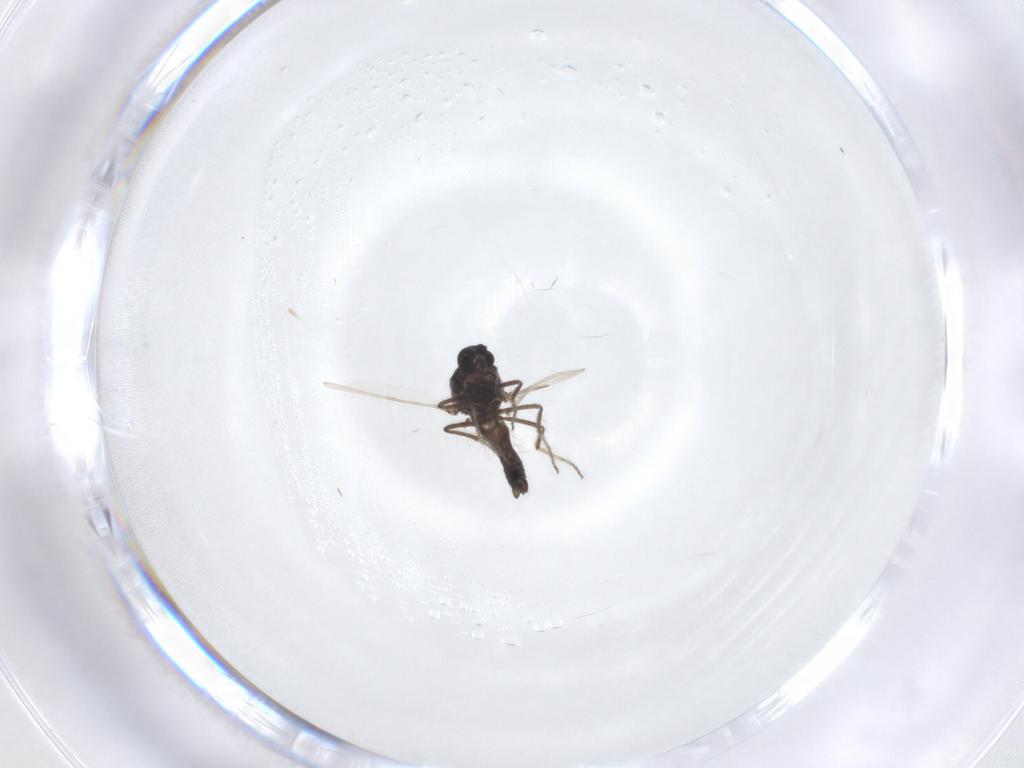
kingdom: Animalia
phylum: Arthropoda
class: Insecta
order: Diptera
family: Ceratopogonidae
